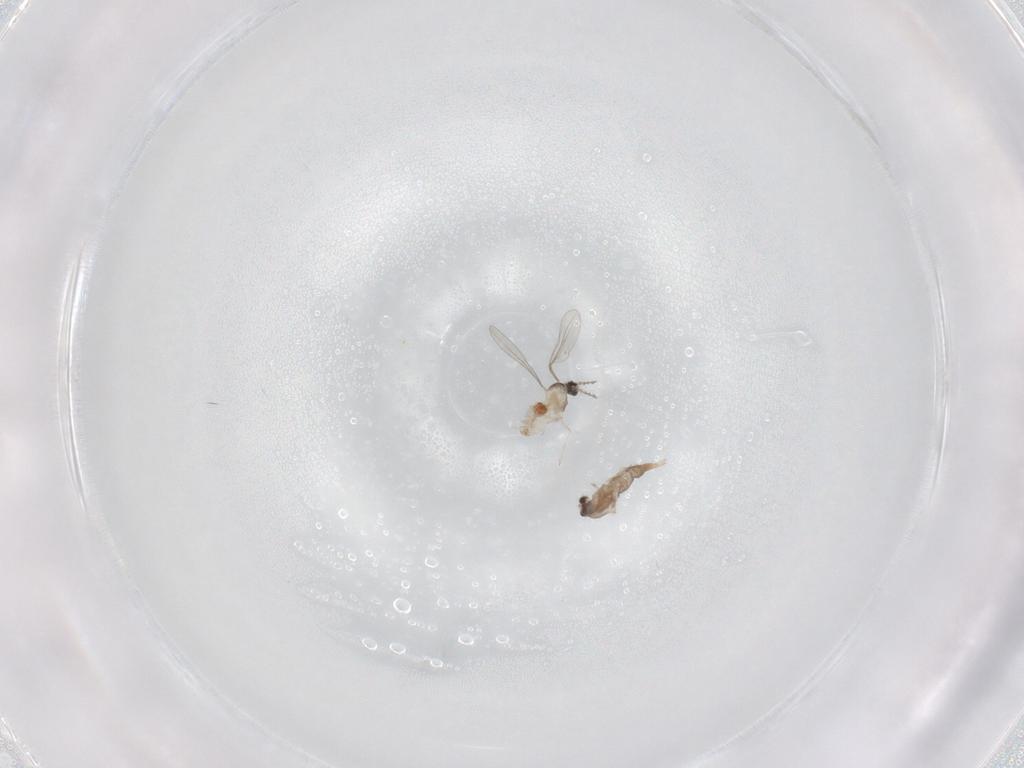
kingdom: Animalia
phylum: Arthropoda
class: Insecta
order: Diptera
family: Cecidomyiidae
